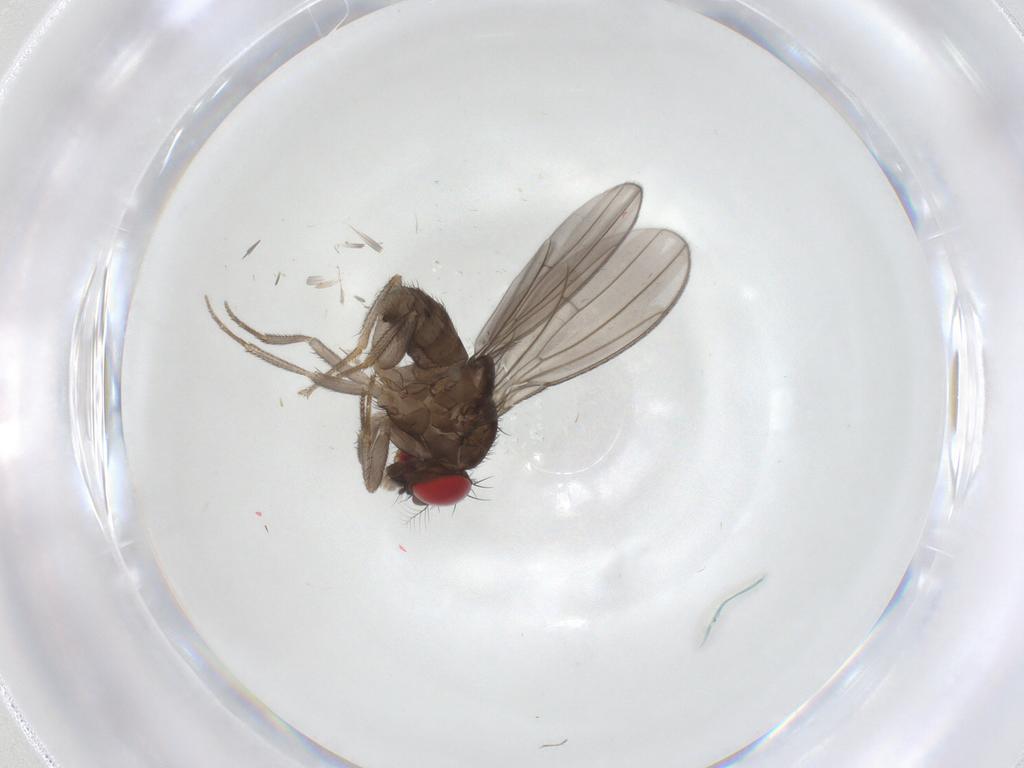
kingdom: Animalia
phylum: Arthropoda
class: Insecta
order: Diptera
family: Drosophilidae
